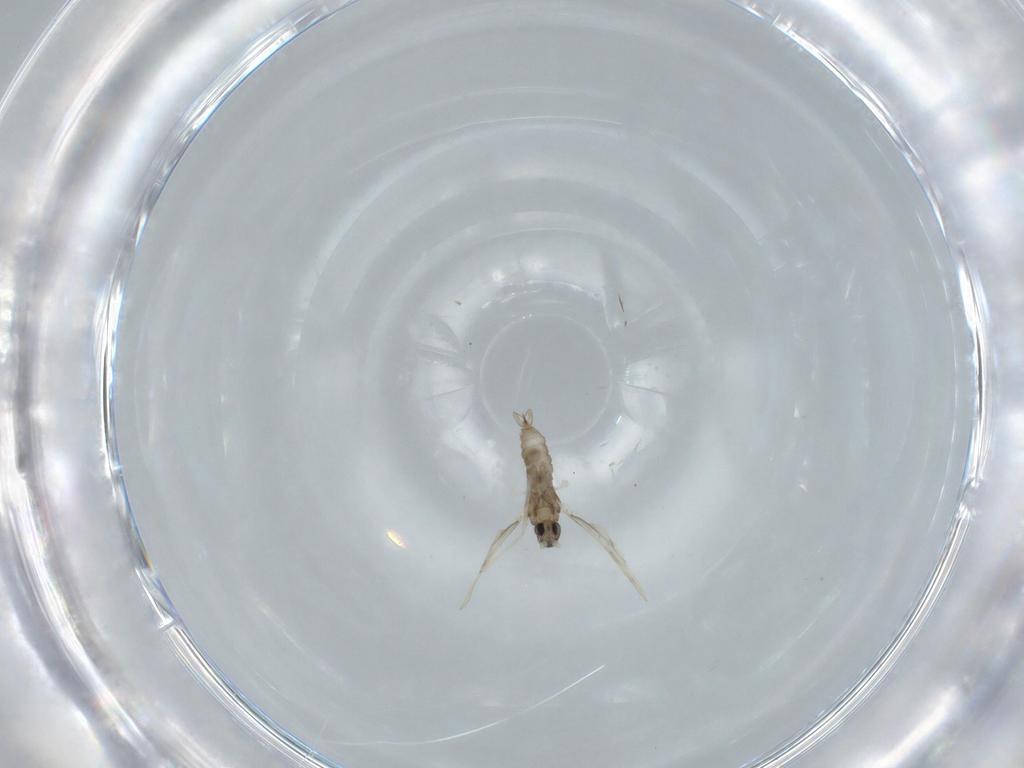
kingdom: Animalia
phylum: Arthropoda
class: Insecta
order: Diptera
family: Cecidomyiidae
